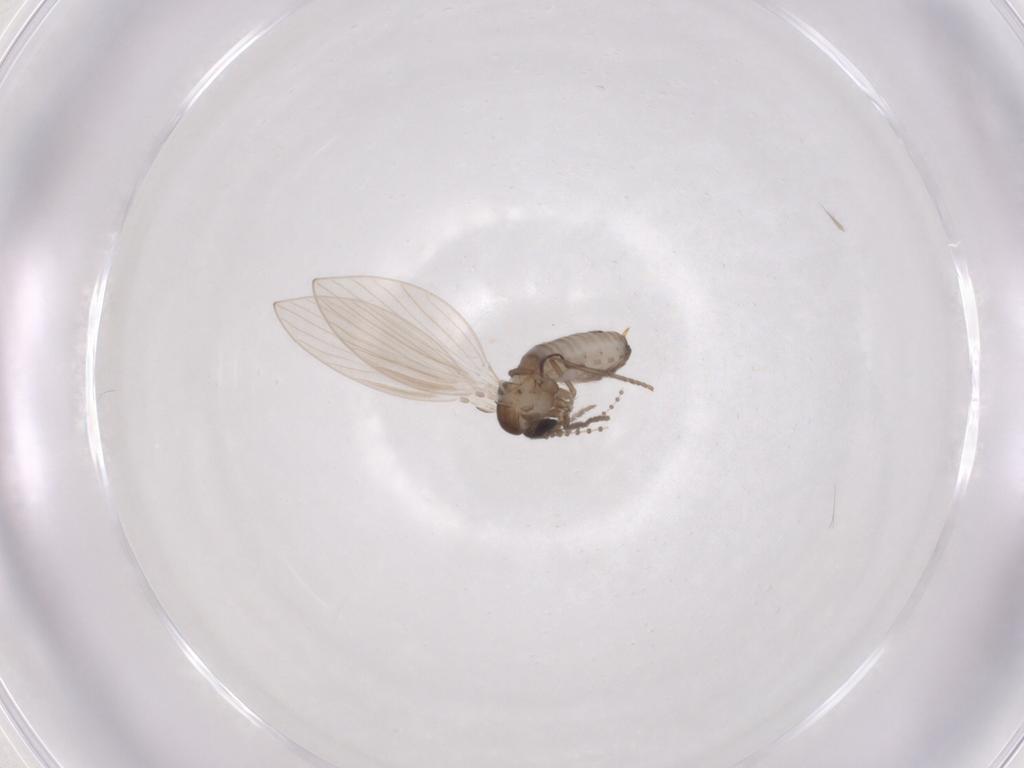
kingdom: Animalia
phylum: Arthropoda
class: Insecta
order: Diptera
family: Psychodidae
